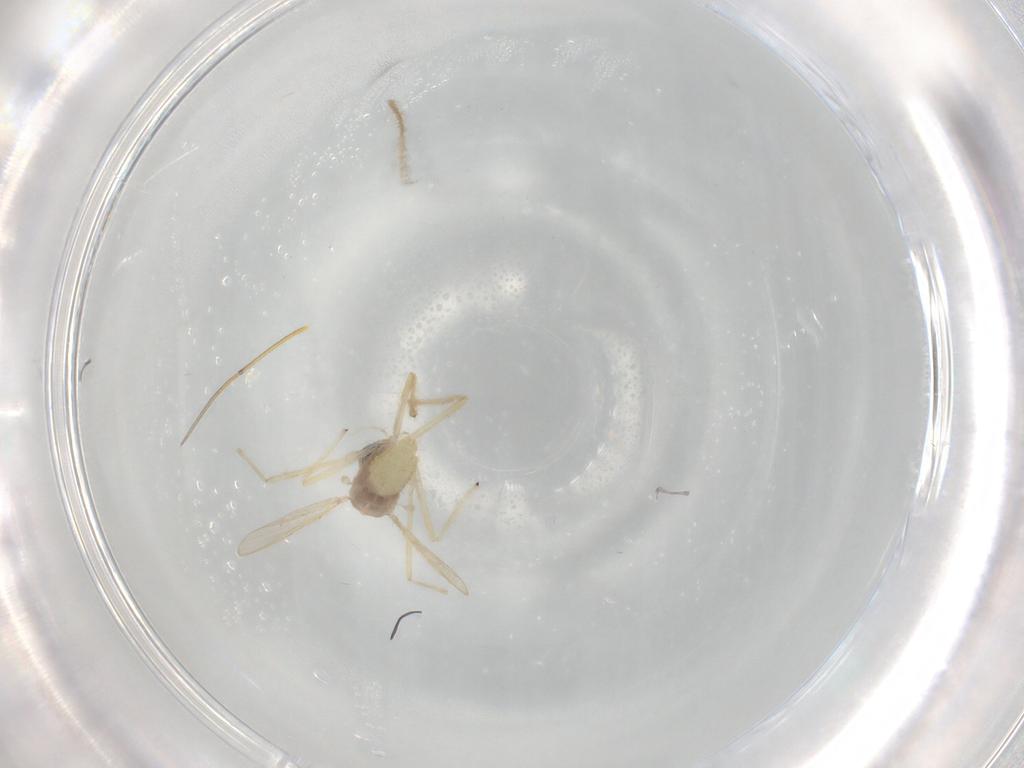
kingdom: Animalia
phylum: Arthropoda
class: Insecta
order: Diptera
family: Chironomidae
